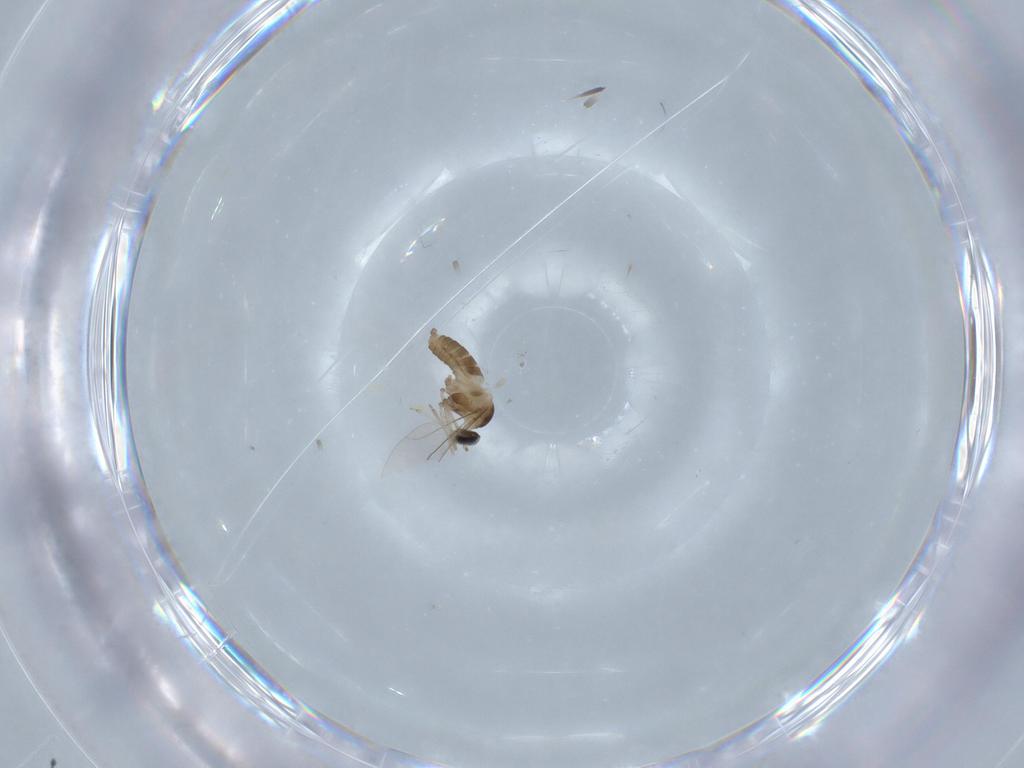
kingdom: Animalia
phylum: Arthropoda
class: Insecta
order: Diptera
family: Cecidomyiidae
